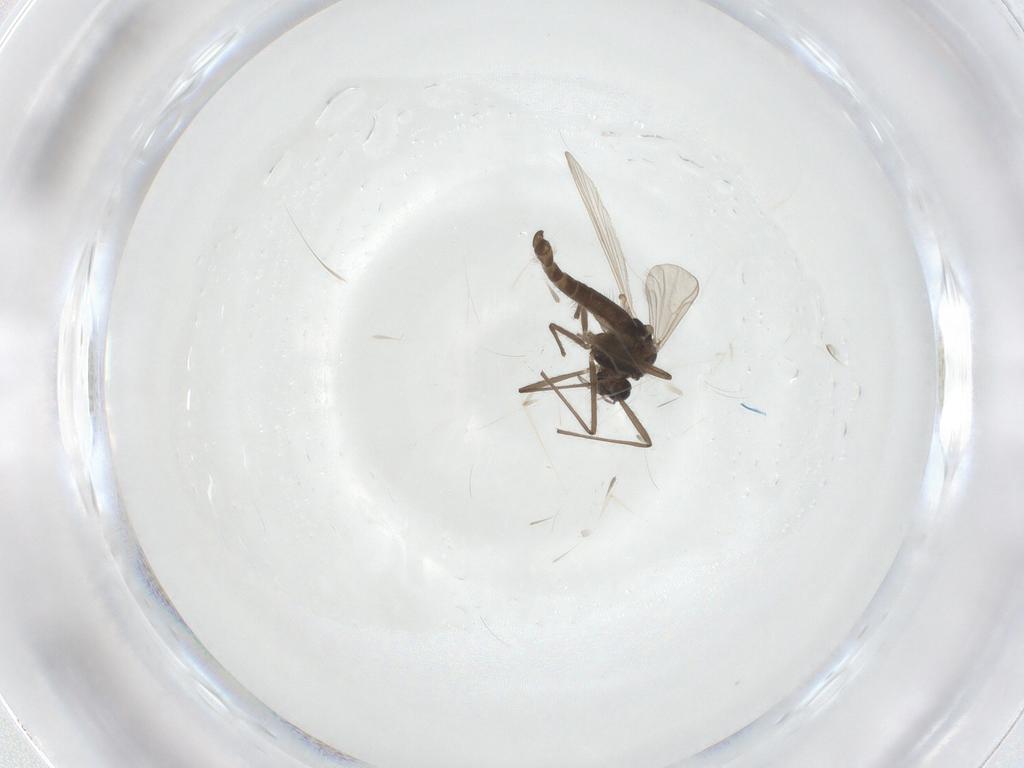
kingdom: Animalia
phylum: Arthropoda
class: Insecta
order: Diptera
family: Chironomidae
